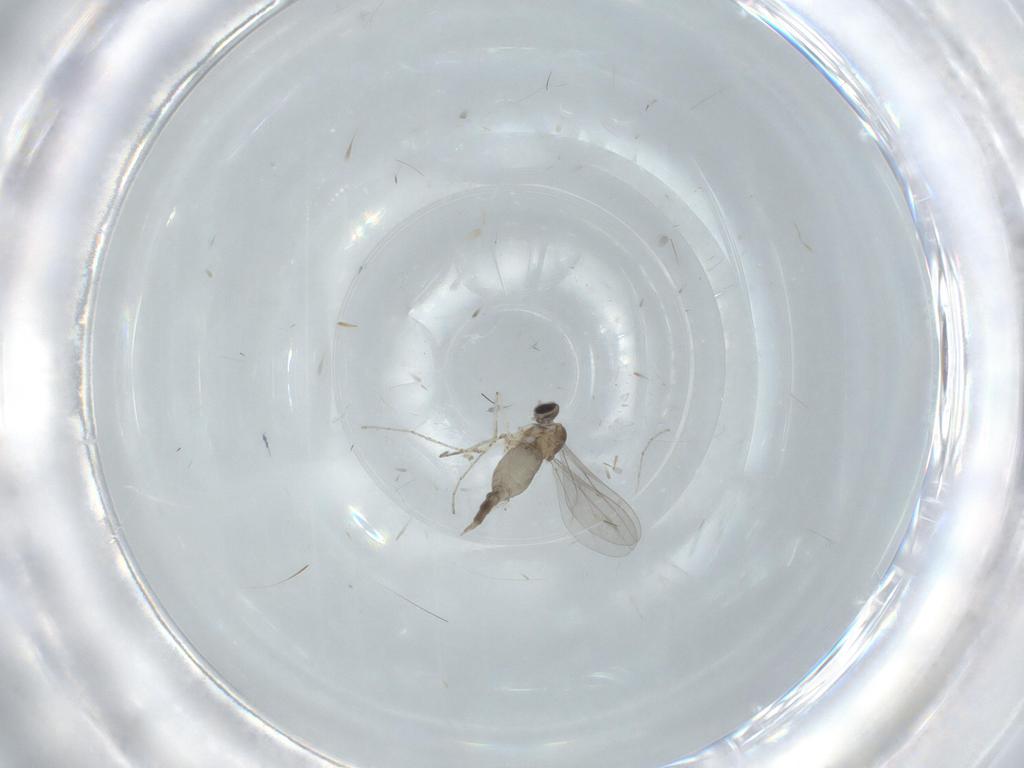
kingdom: Animalia
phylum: Arthropoda
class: Insecta
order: Diptera
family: Cecidomyiidae
